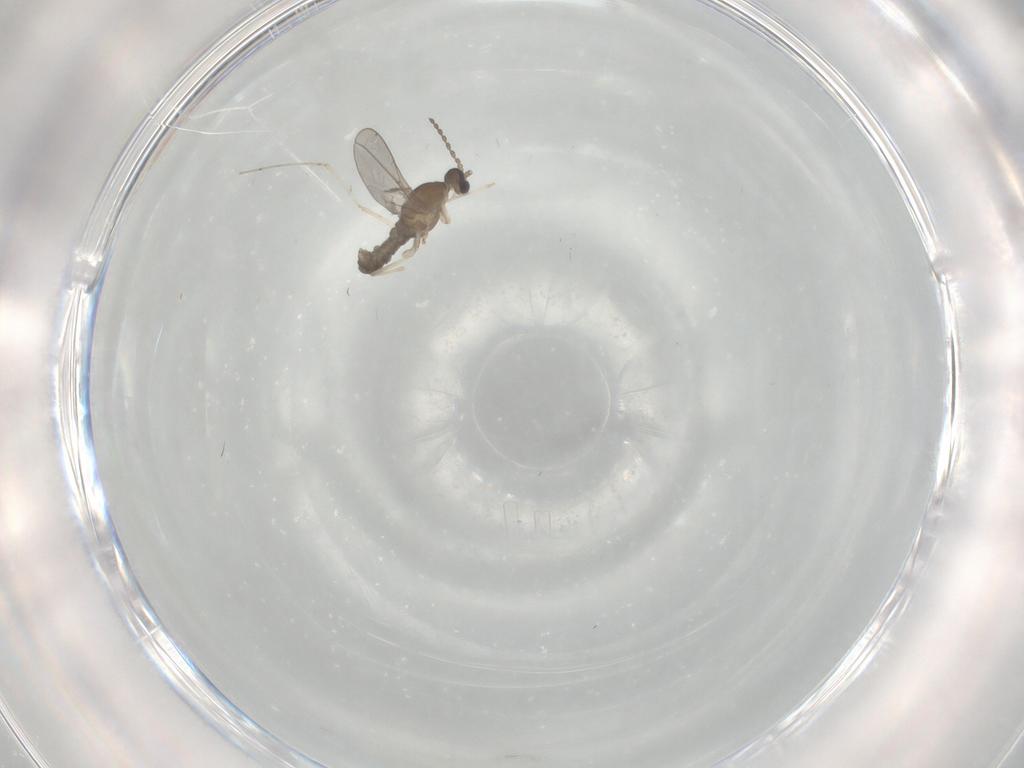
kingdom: Animalia
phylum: Arthropoda
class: Insecta
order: Diptera
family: Cecidomyiidae
